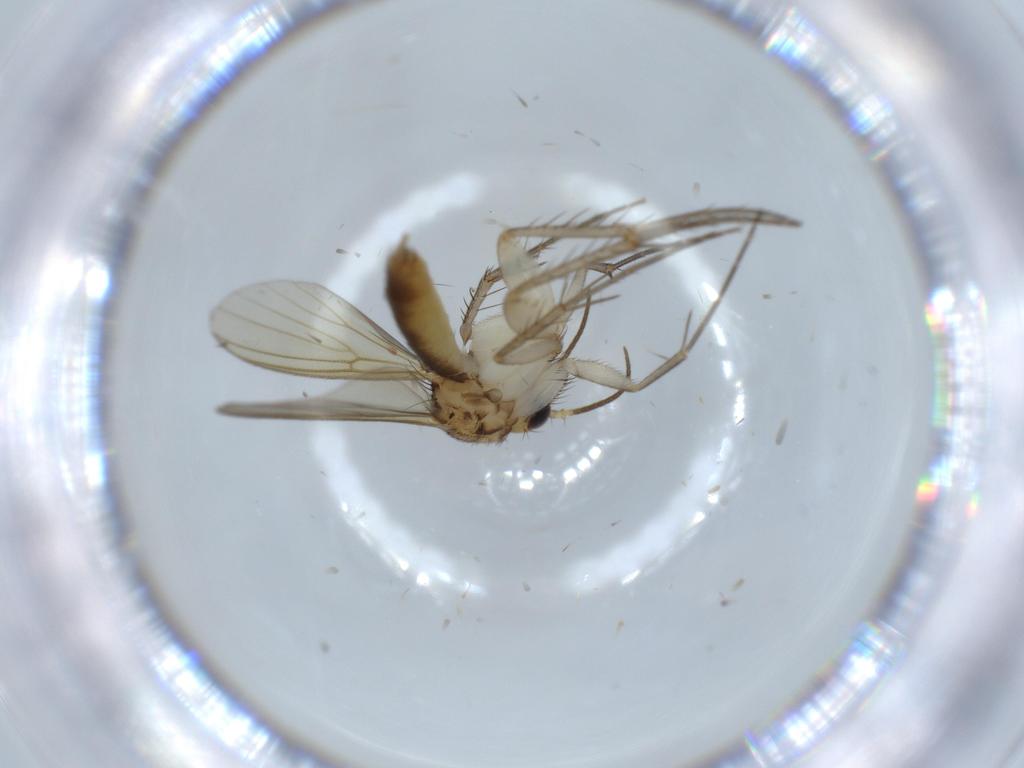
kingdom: Animalia
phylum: Arthropoda
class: Insecta
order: Diptera
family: Mycetophilidae
